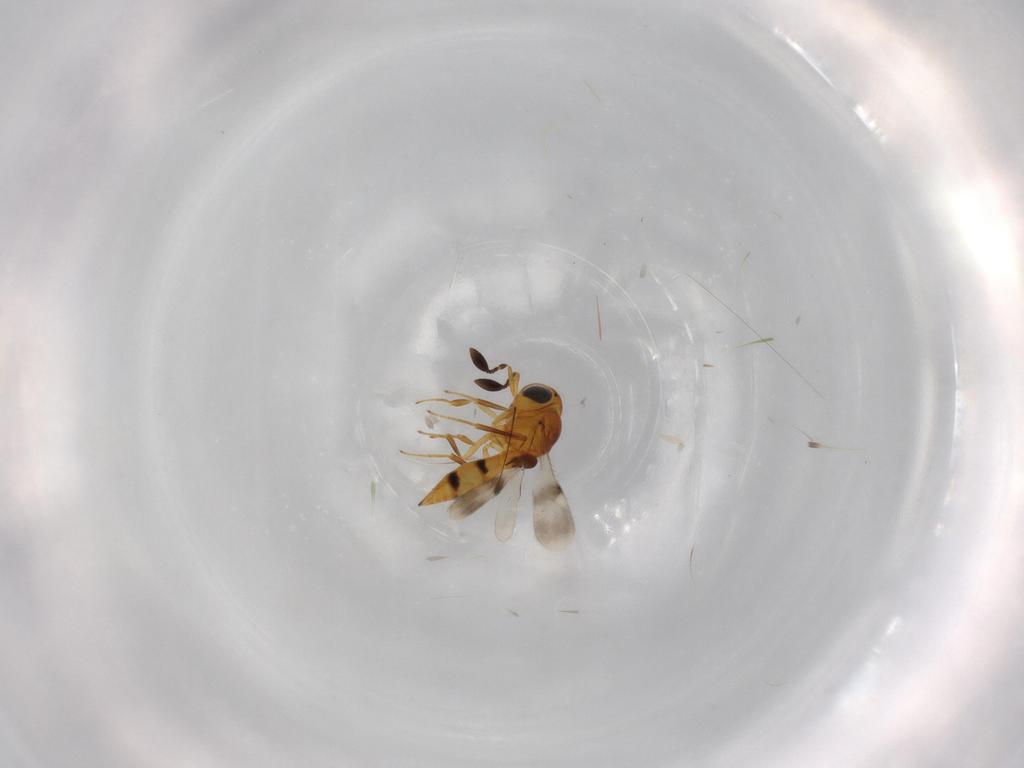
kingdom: Animalia
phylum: Arthropoda
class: Insecta
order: Hymenoptera
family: Scelionidae
